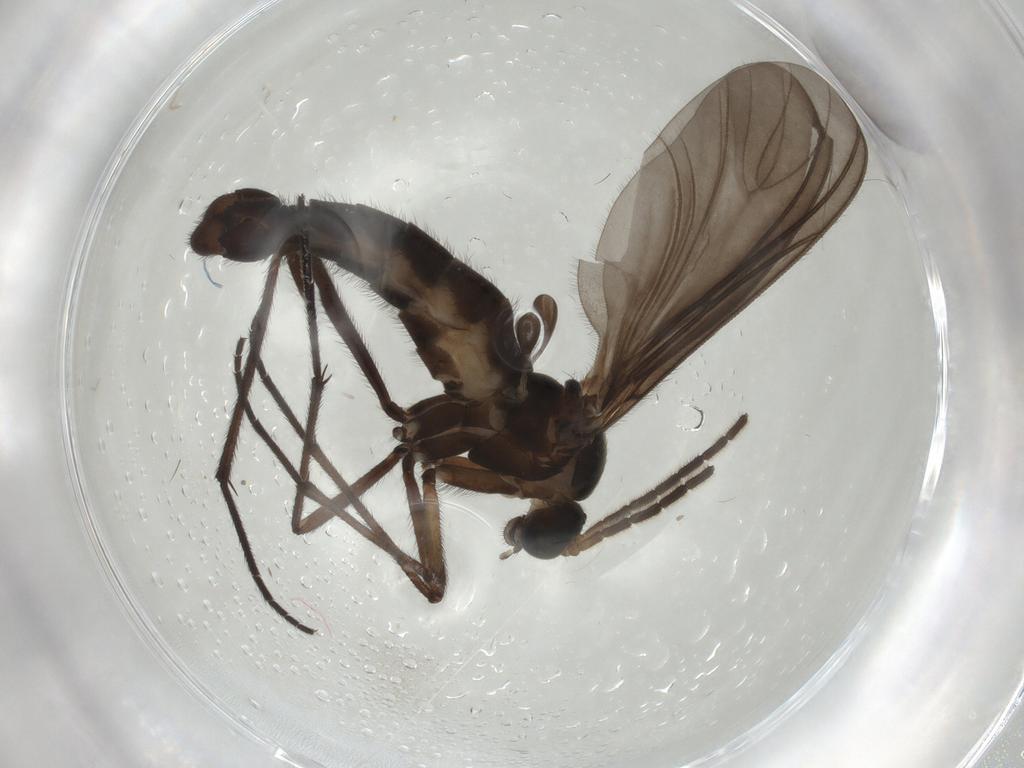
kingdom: Animalia
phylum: Arthropoda
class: Insecta
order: Diptera
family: Sciaridae
